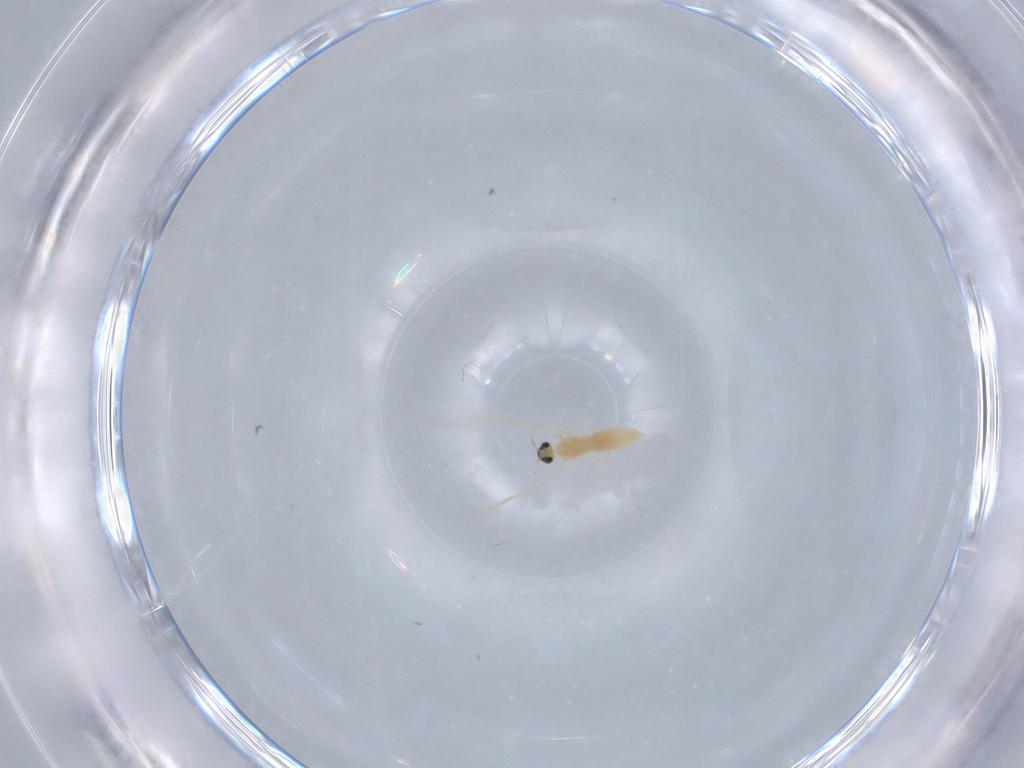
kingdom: Animalia
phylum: Arthropoda
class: Insecta
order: Diptera
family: Cecidomyiidae
